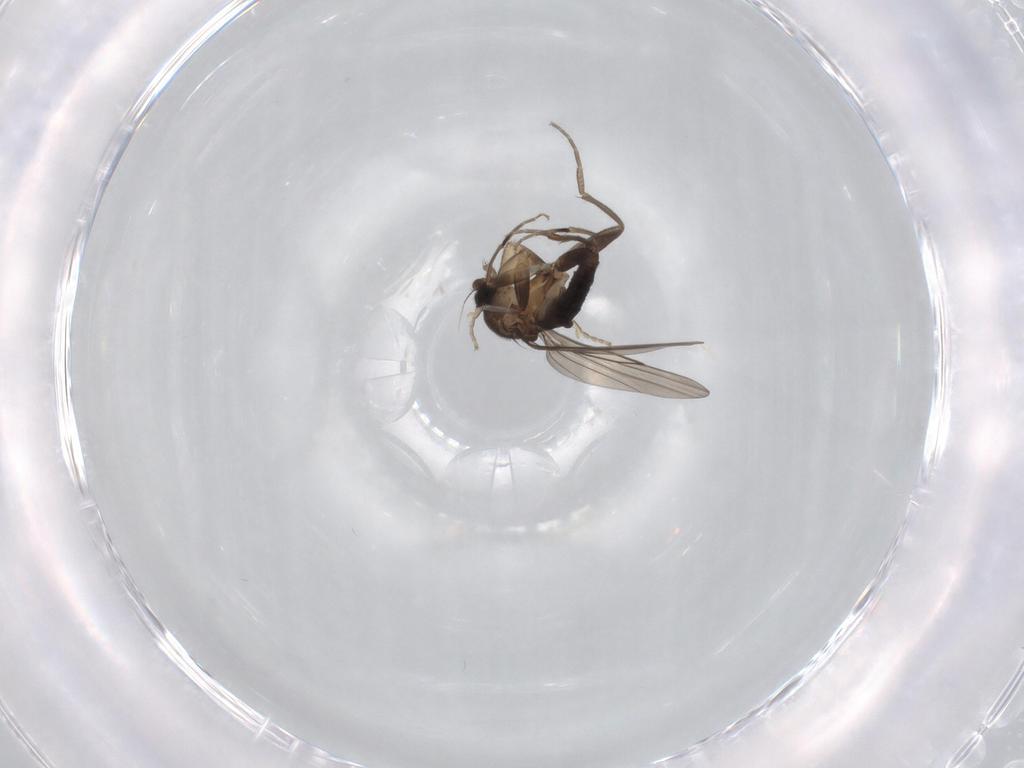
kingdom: Animalia
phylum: Arthropoda
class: Insecta
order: Diptera
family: Phoridae
